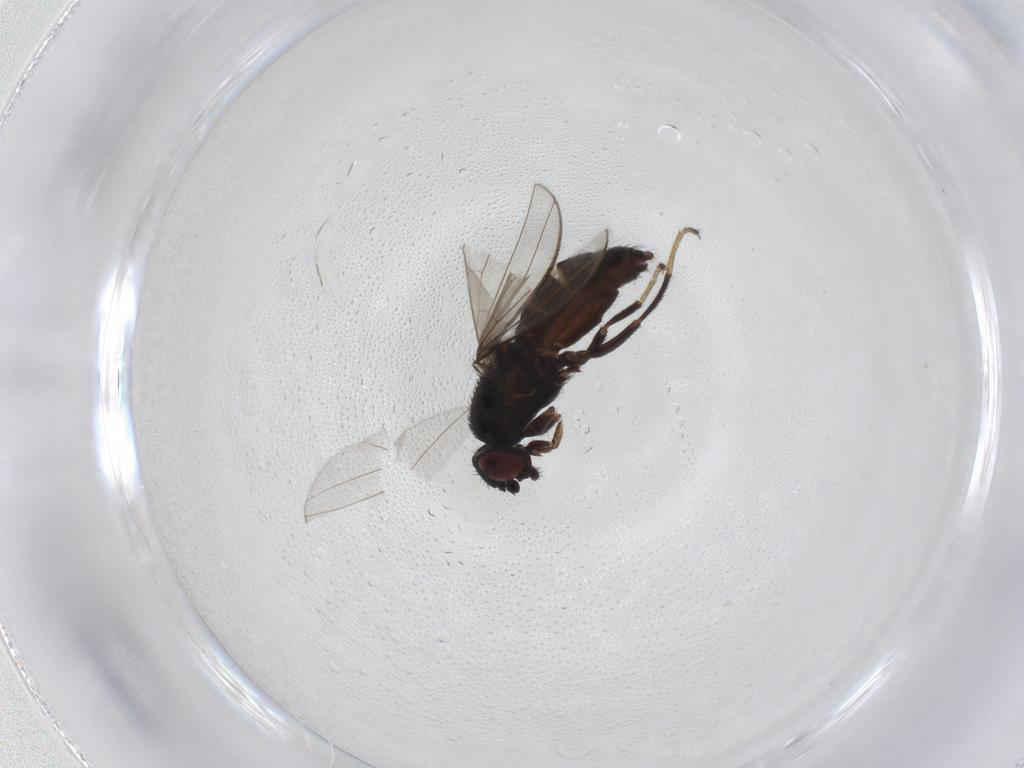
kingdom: Animalia
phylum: Arthropoda
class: Insecta
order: Diptera
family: Milichiidae
